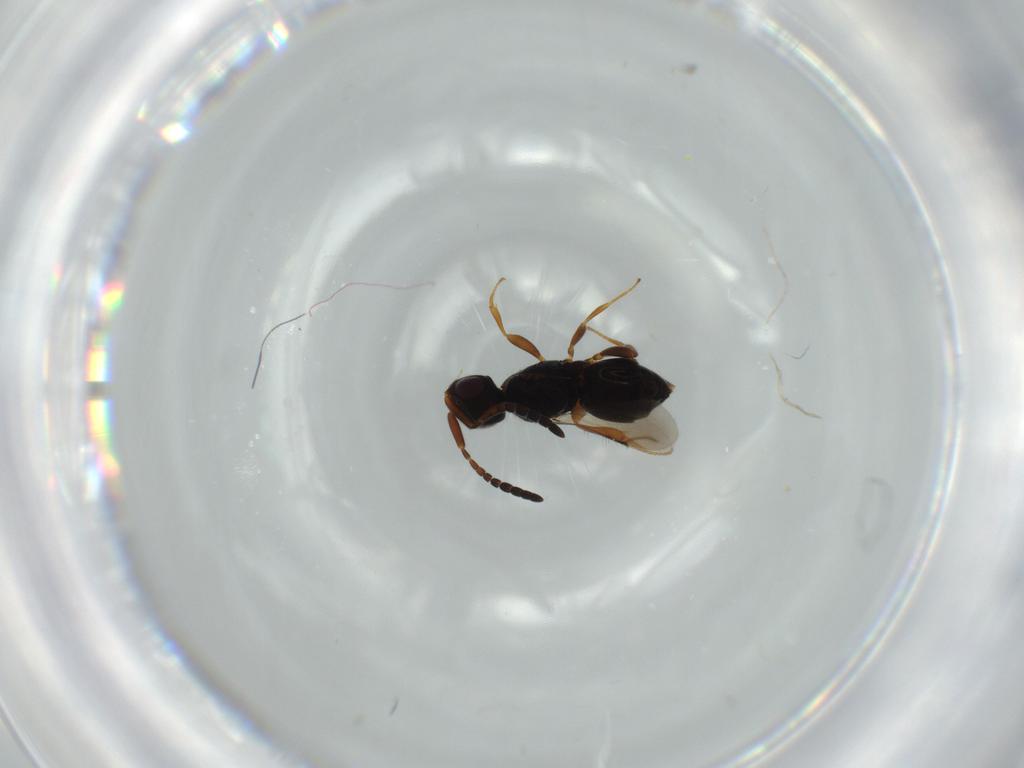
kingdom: Animalia
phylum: Arthropoda
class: Insecta
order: Hymenoptera
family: Ceraphronidae
